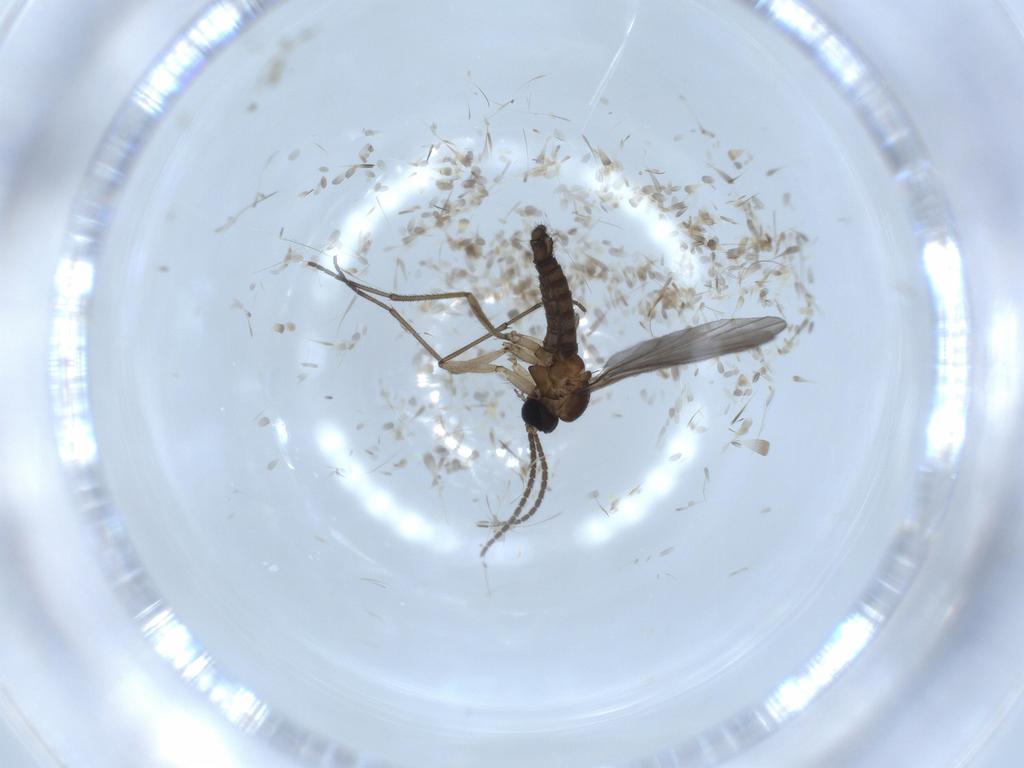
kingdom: Animalia
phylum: Arthropoda
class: Insecta
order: Diptera
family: Sciaridae
